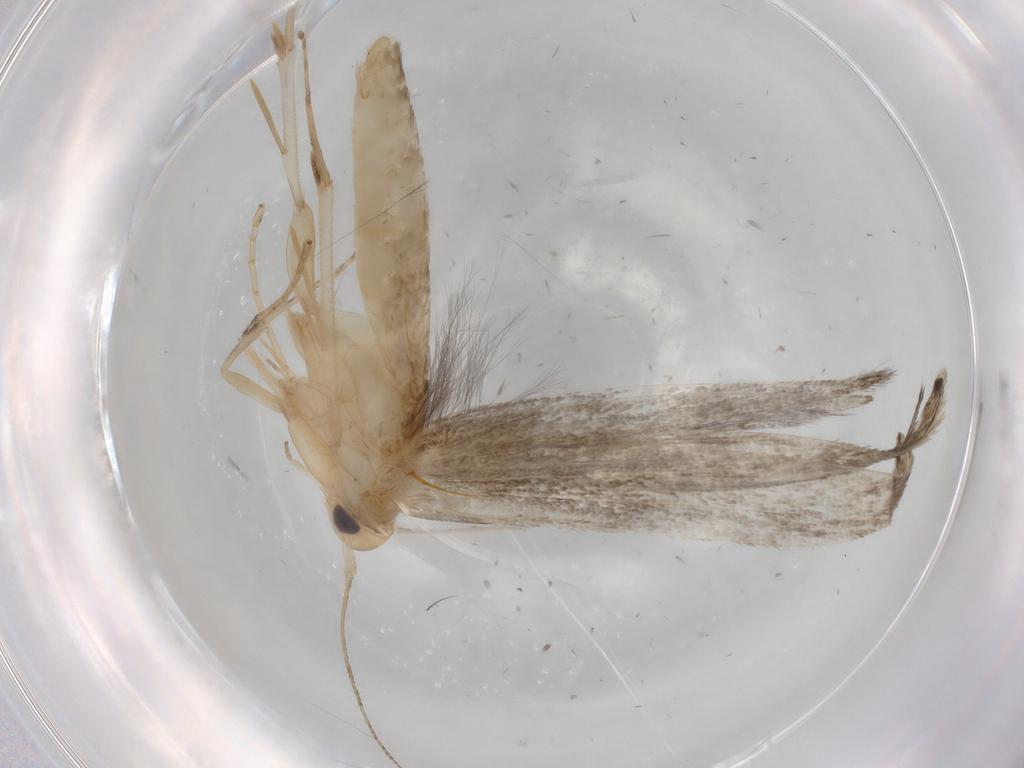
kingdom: Animalia
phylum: Arthropoda
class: Insecta
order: Lepidoptera
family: Elachistidae
